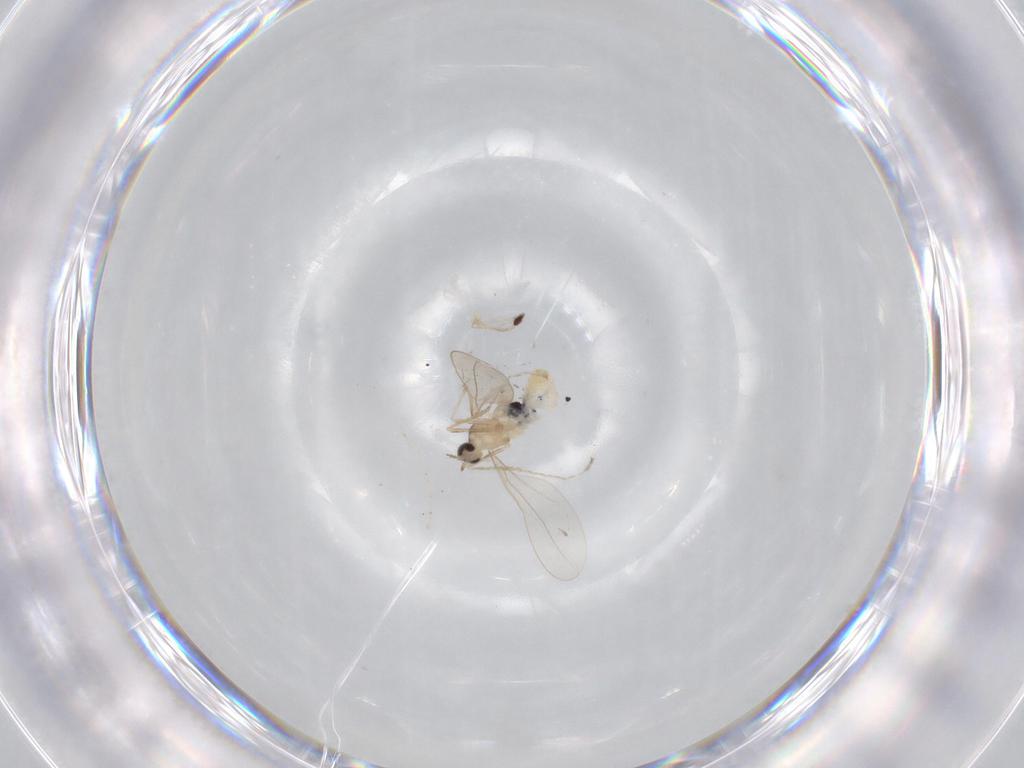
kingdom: Animalia
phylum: Arthropoda
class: Insecta
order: Diptera
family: Cecidomyiidae
